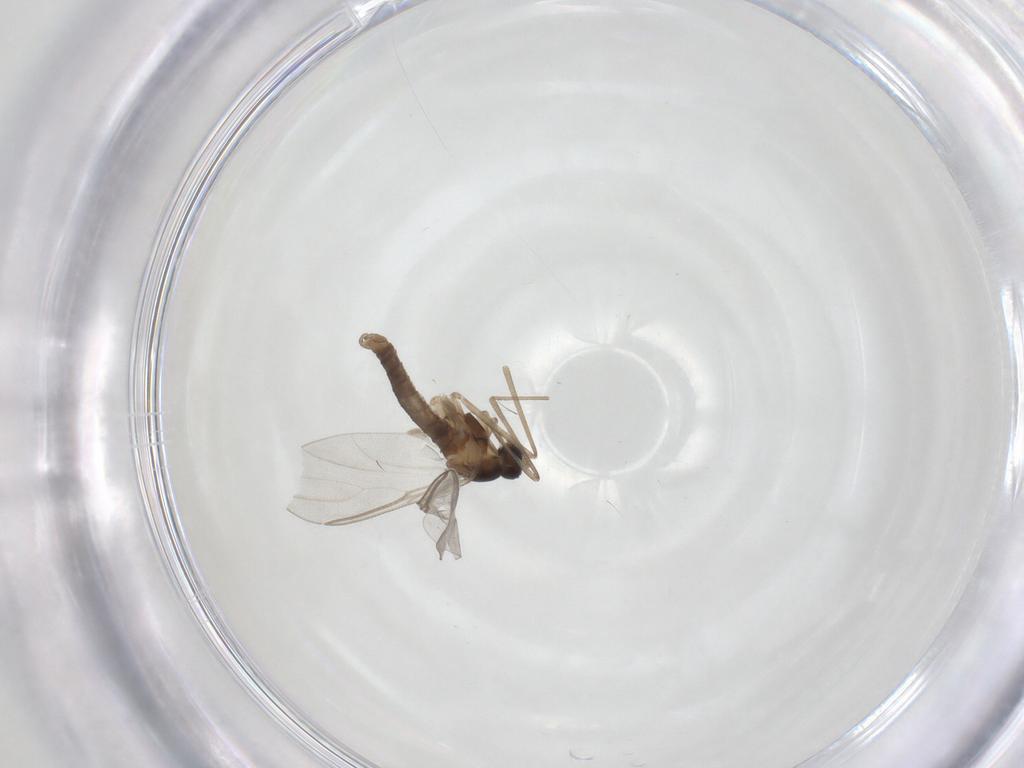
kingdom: Animalia
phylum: Arthropoda
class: Insecta
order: Diptera
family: Cecidomyiidae
